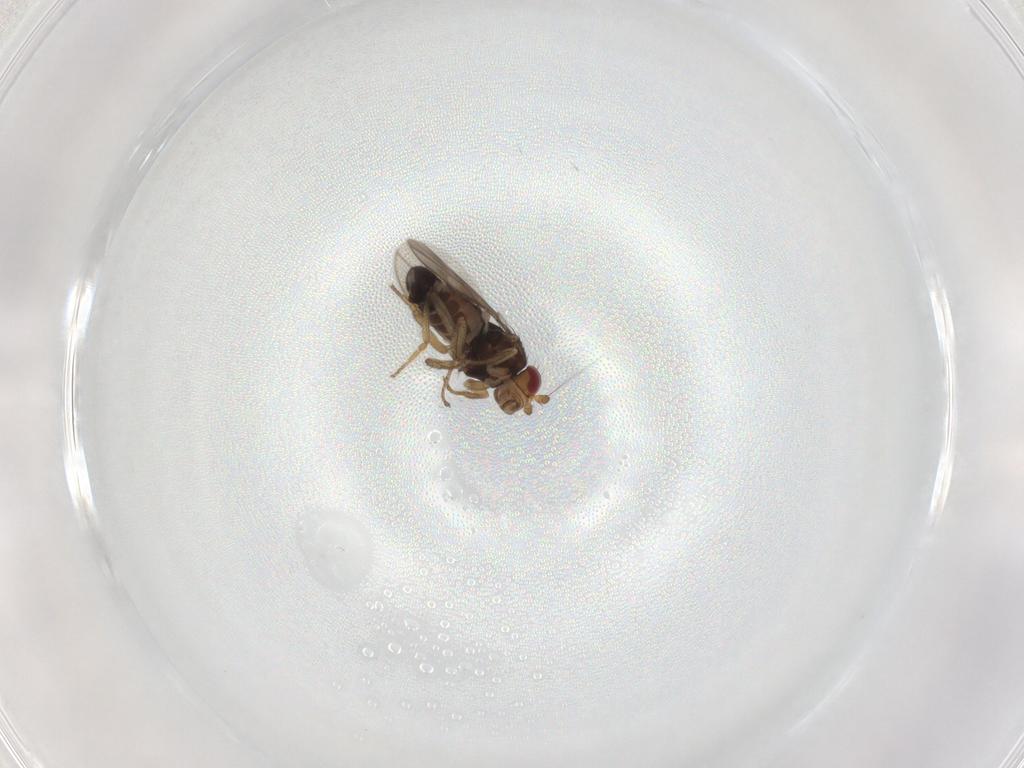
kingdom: Animalia
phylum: Arthropoda
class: Insecta
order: Diptera
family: Sphaeroceridae
